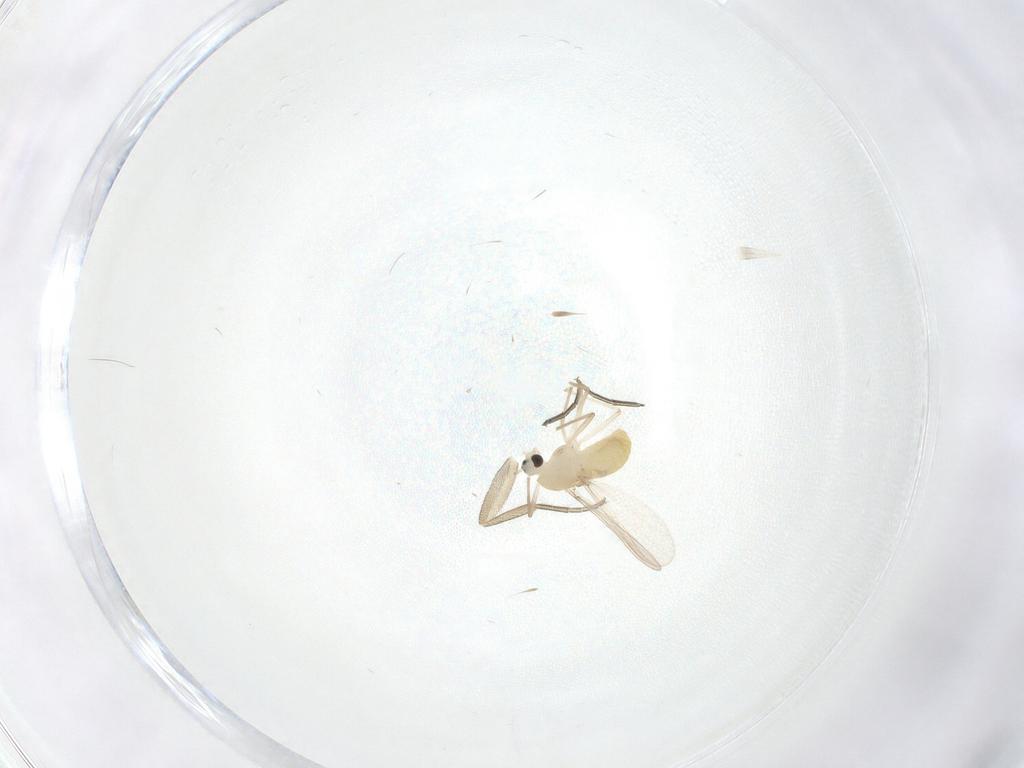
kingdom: Animalia
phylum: Arthropoda
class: Insecta
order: Diptera
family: Chironomidae
